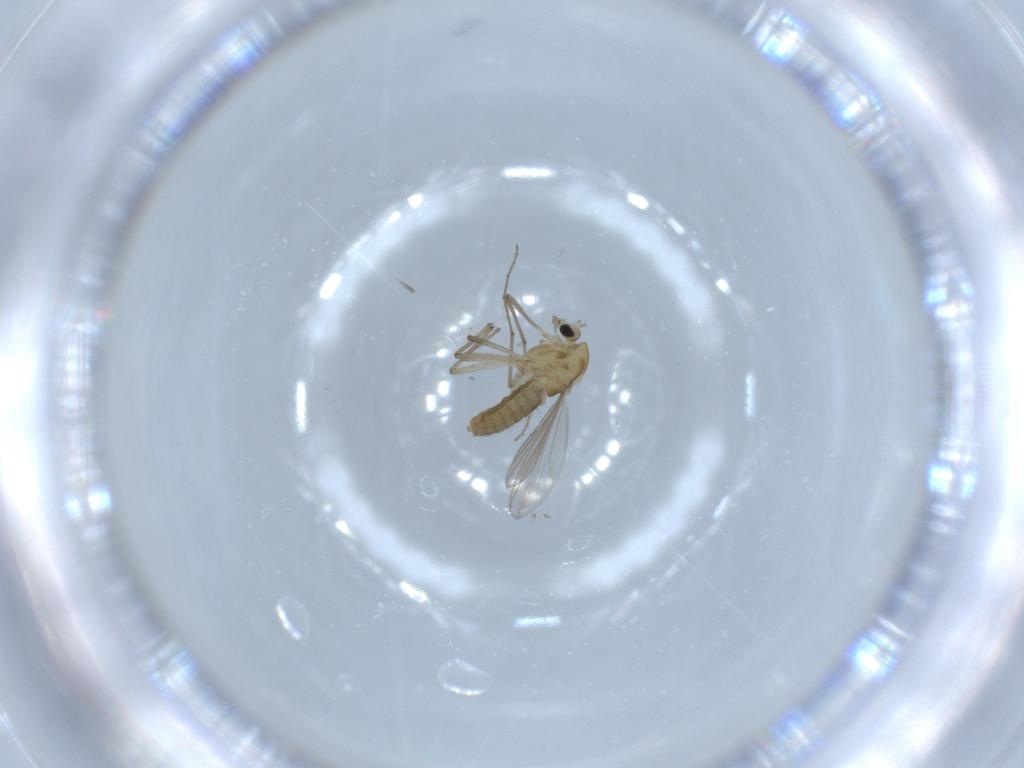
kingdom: Animalia
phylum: Arthropoda
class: Insecta
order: Diptera
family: Chironomidae
